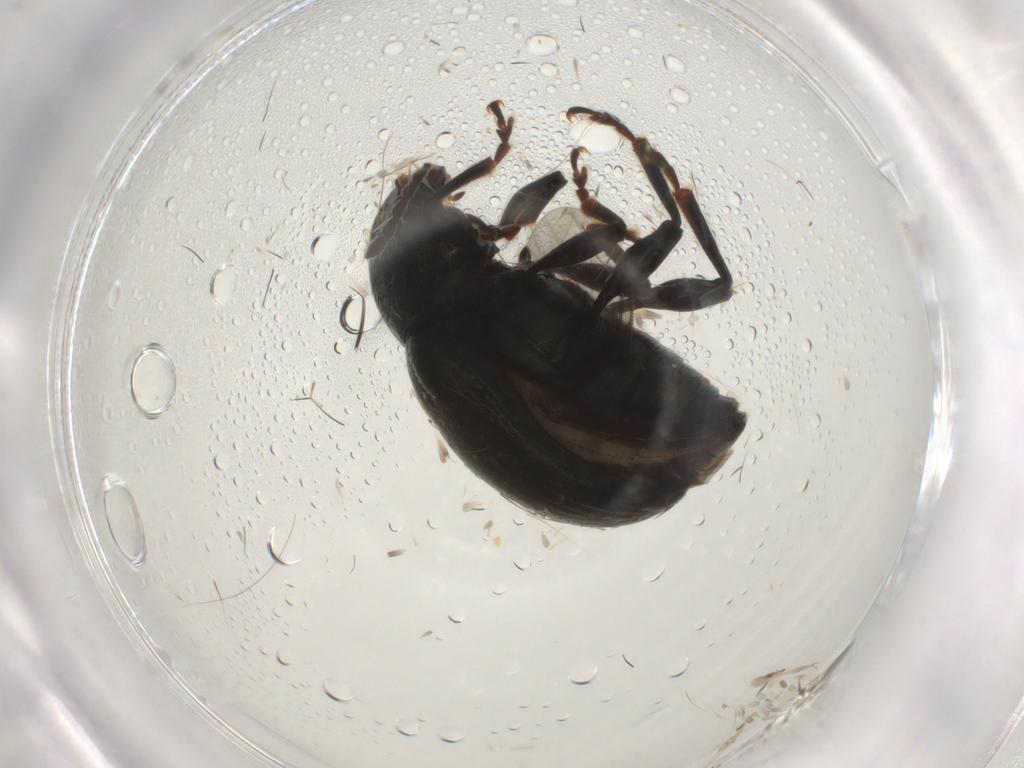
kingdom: Animalia
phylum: Arthropoda
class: Insecta
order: Coleoptera
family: Chrysomelidae
